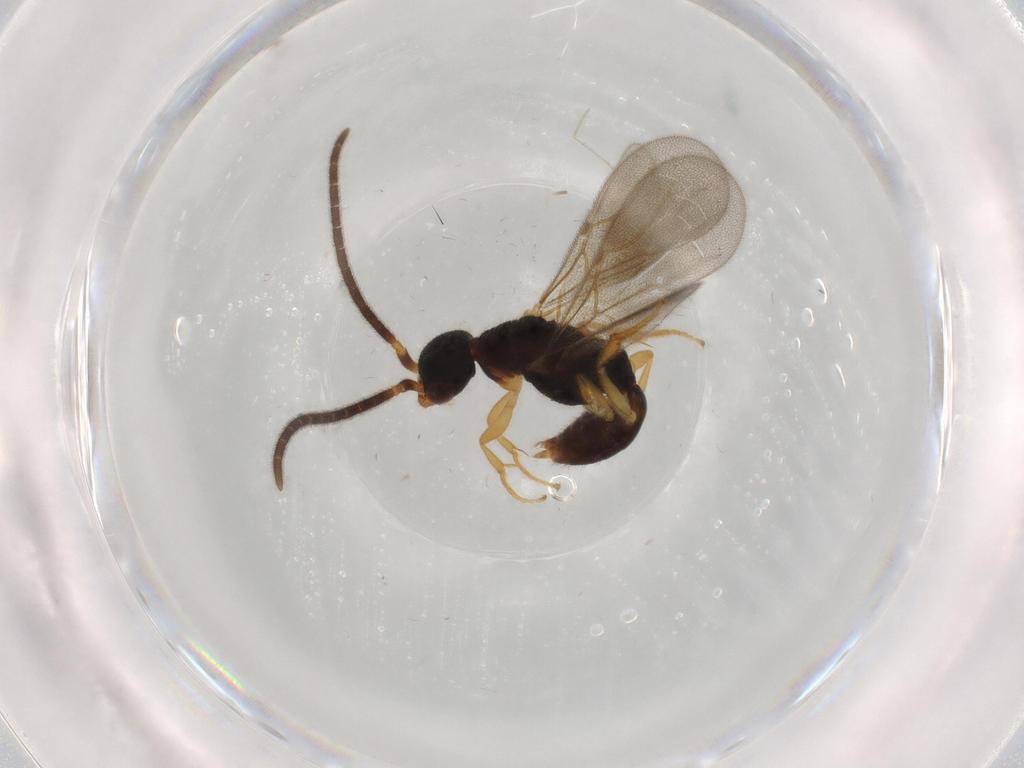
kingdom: Animalia
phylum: Arthropoda
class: Insecta
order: Hymenoptera
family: Bethylidae
